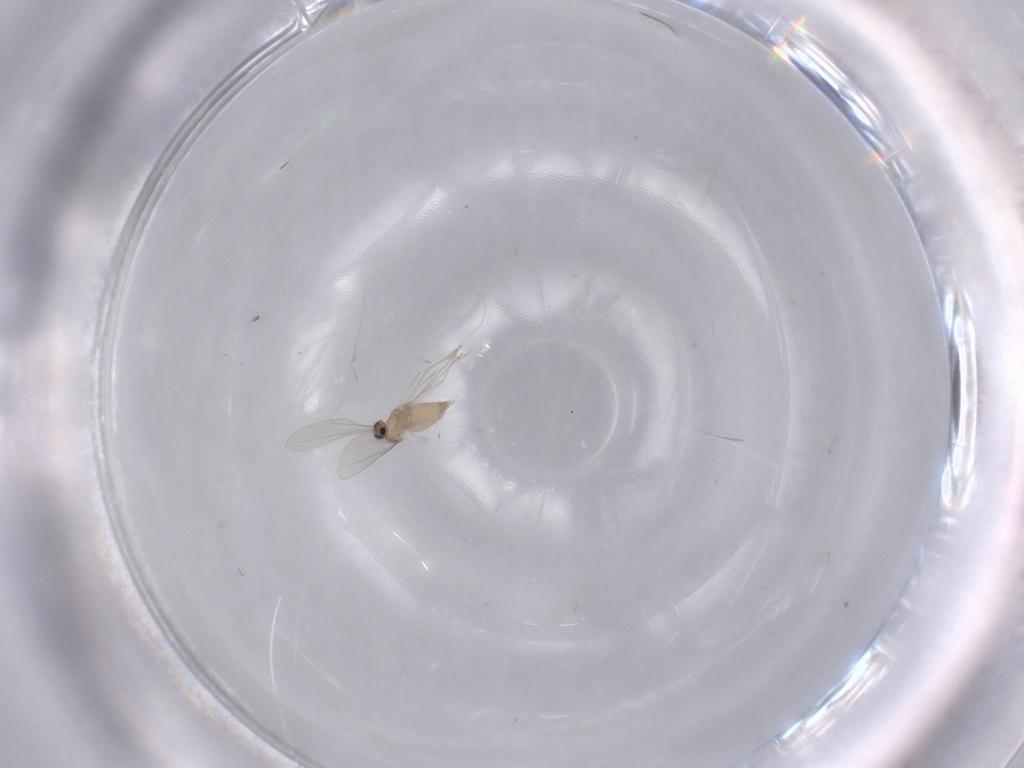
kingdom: Animalia
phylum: Arthropoda
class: Insecta
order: Diptera
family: Cecidomyiidae
